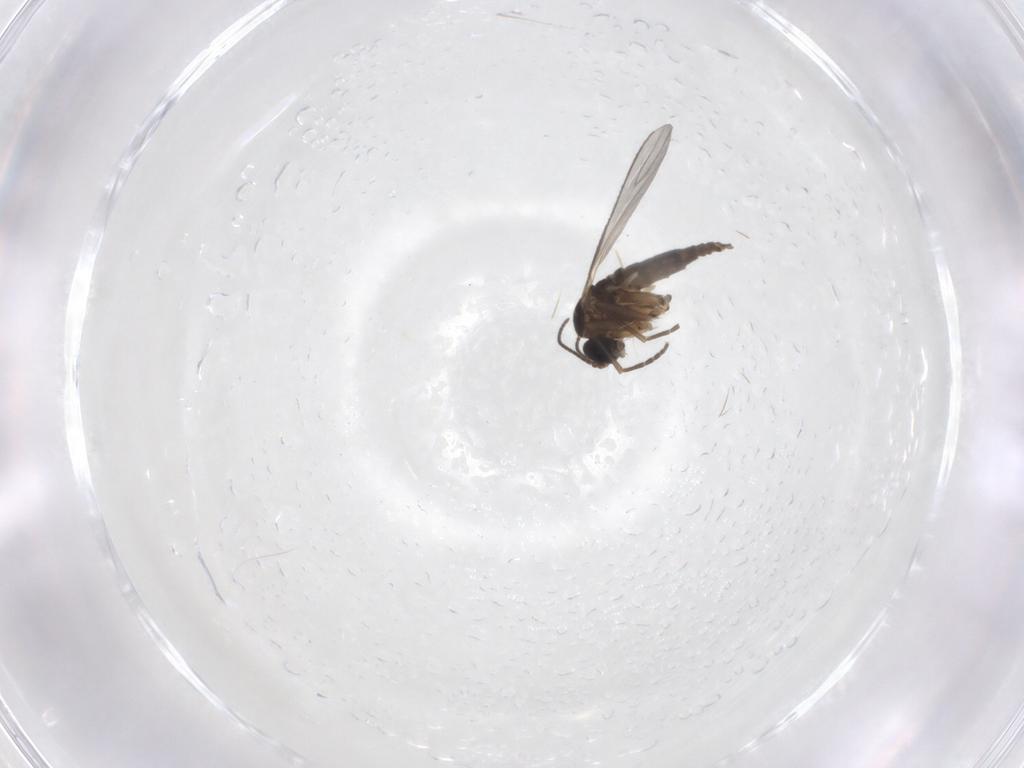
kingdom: Animalia
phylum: Arthropoda
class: Insecta
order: Diptera
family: Sciaridae
